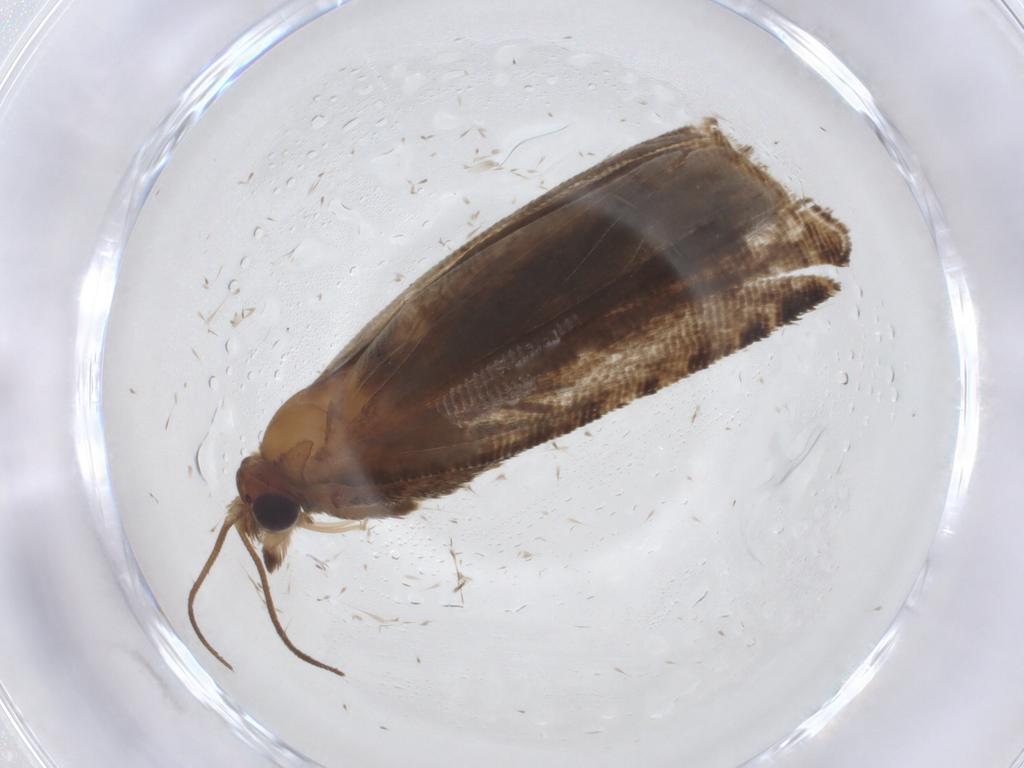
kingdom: Animalia
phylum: Arthropoda
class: Insecta
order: Lepidoptera
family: Tortricidae
